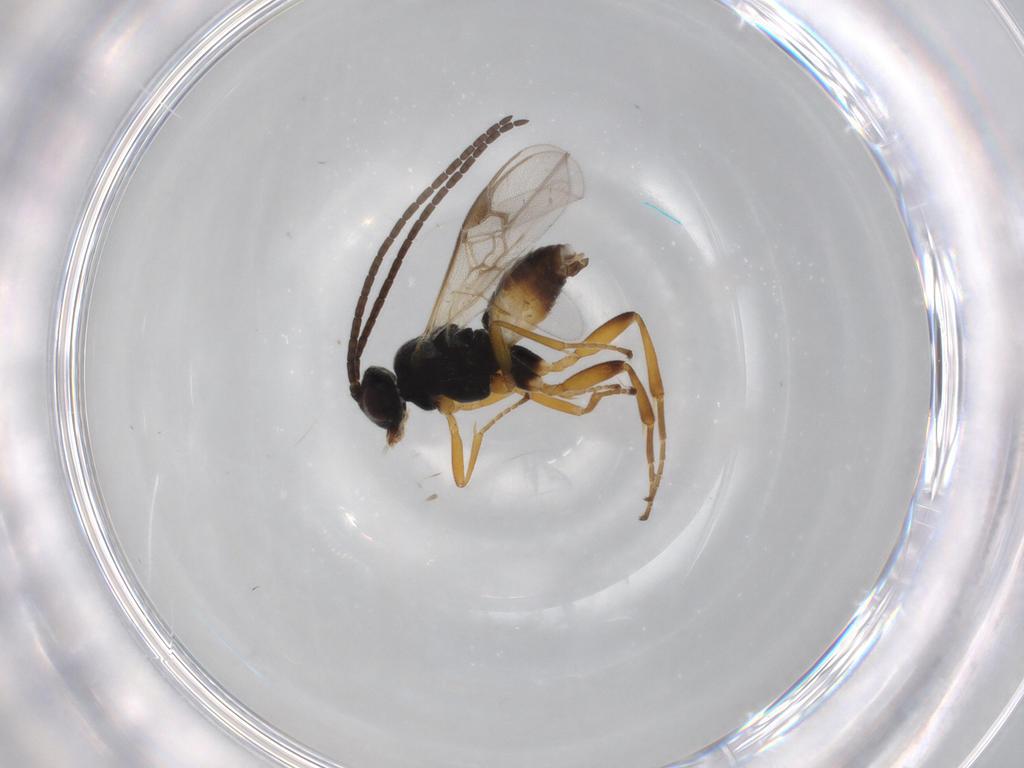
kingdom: Animalia
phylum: Arthropoda
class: Insecta
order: Hymenoptera
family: Braconidae
